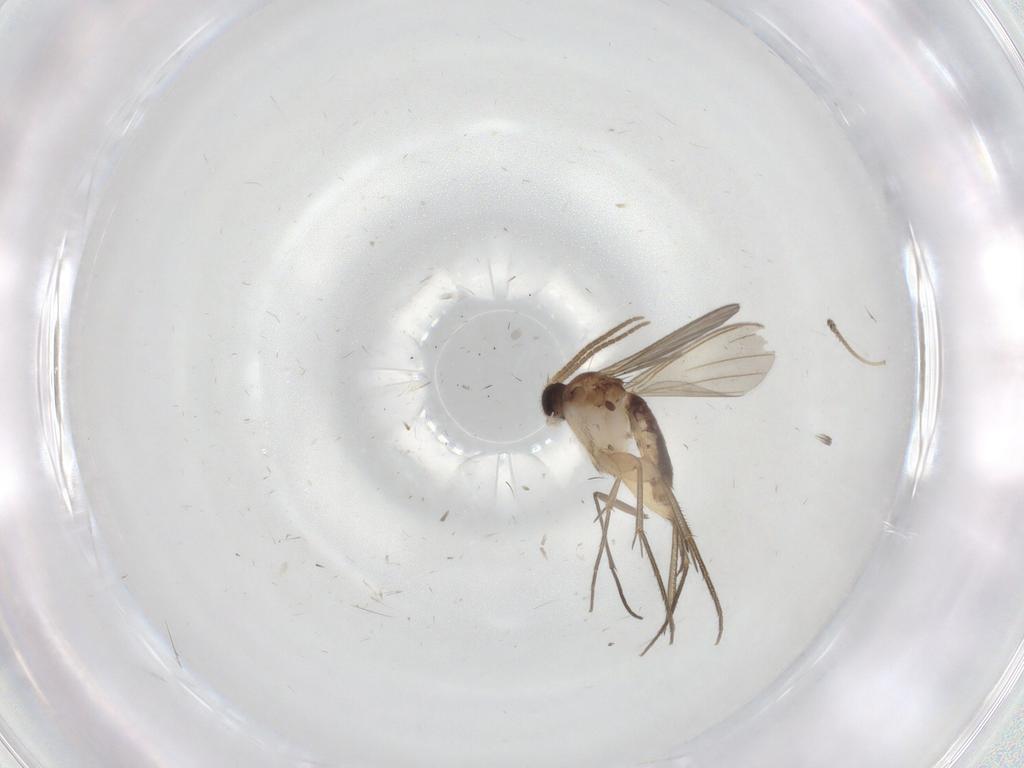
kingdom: Animalia
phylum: Arthropoda
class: Insecta
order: Diptera
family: Mycetophilidae
